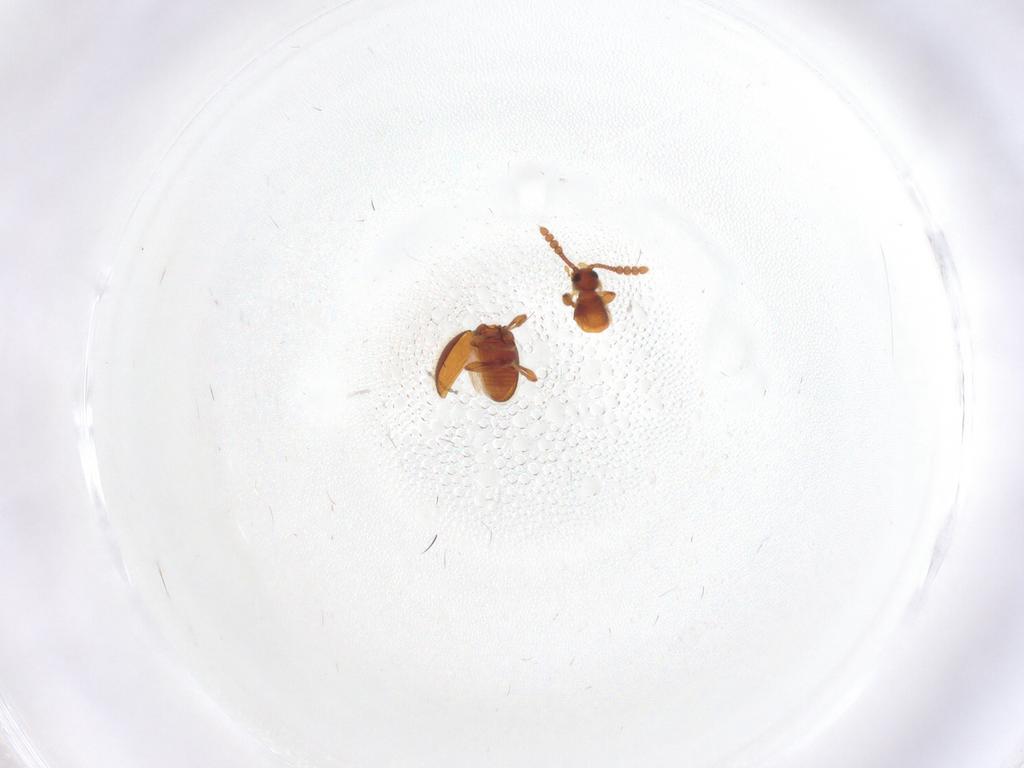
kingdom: Animalia
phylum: Arthropoda
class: Insecta
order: Coleoptera
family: Staphylinidae
